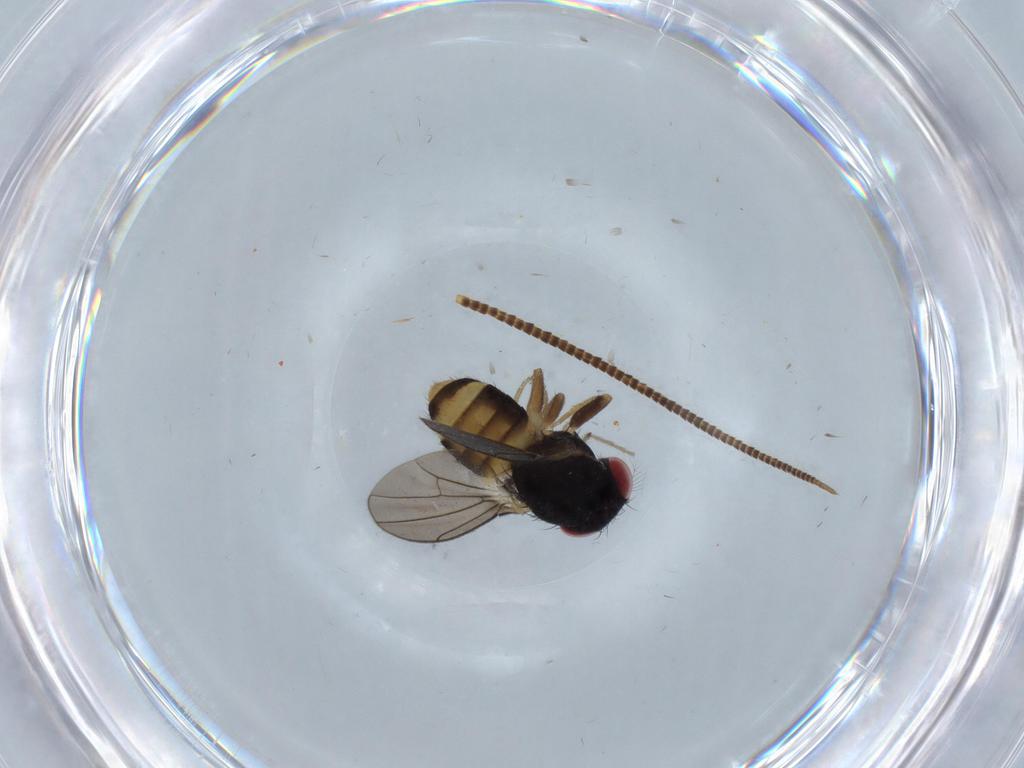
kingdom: Animalia
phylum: Arthropoda
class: Insecta
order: Diptera
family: Drosophilidae
